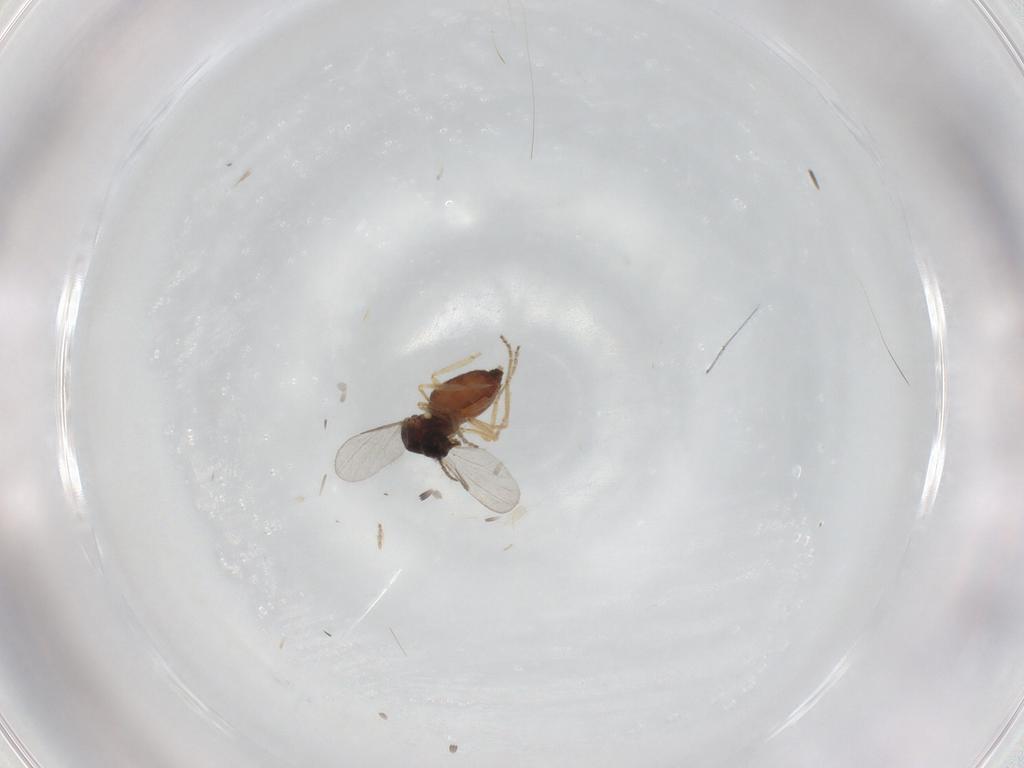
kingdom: Animalia
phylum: Arthropoda
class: Insecta
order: Diptera
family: Ceratopogonidae
